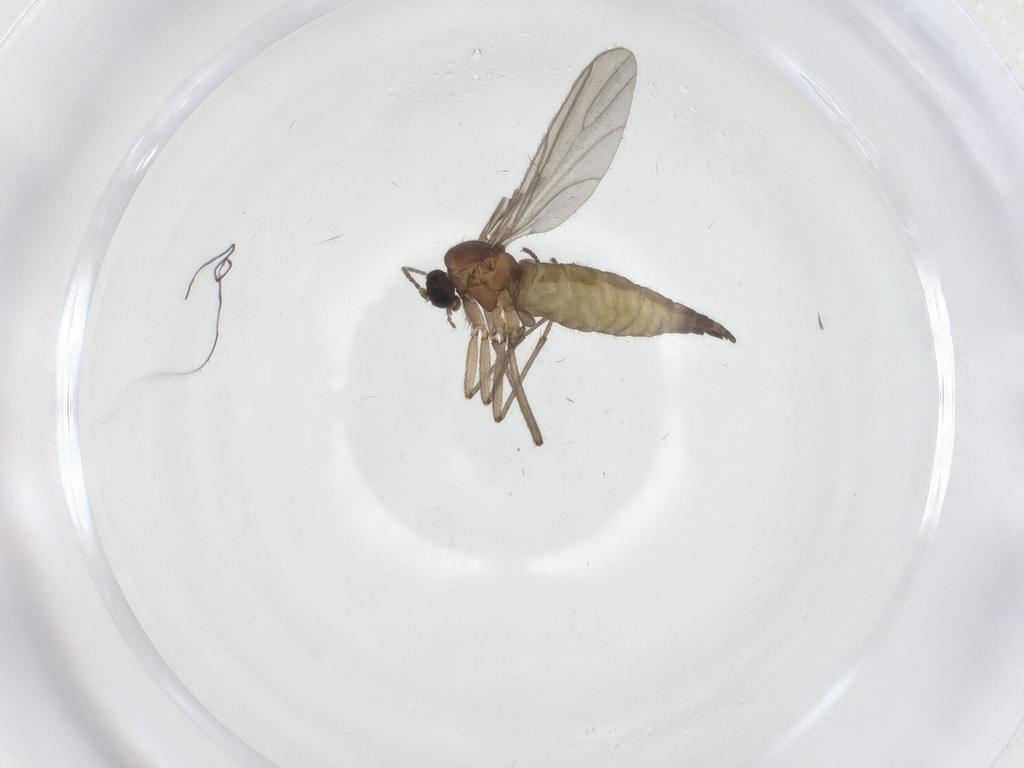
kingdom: Animalia
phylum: Arthropoda
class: Insecta
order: Diptera
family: Sciaridae
